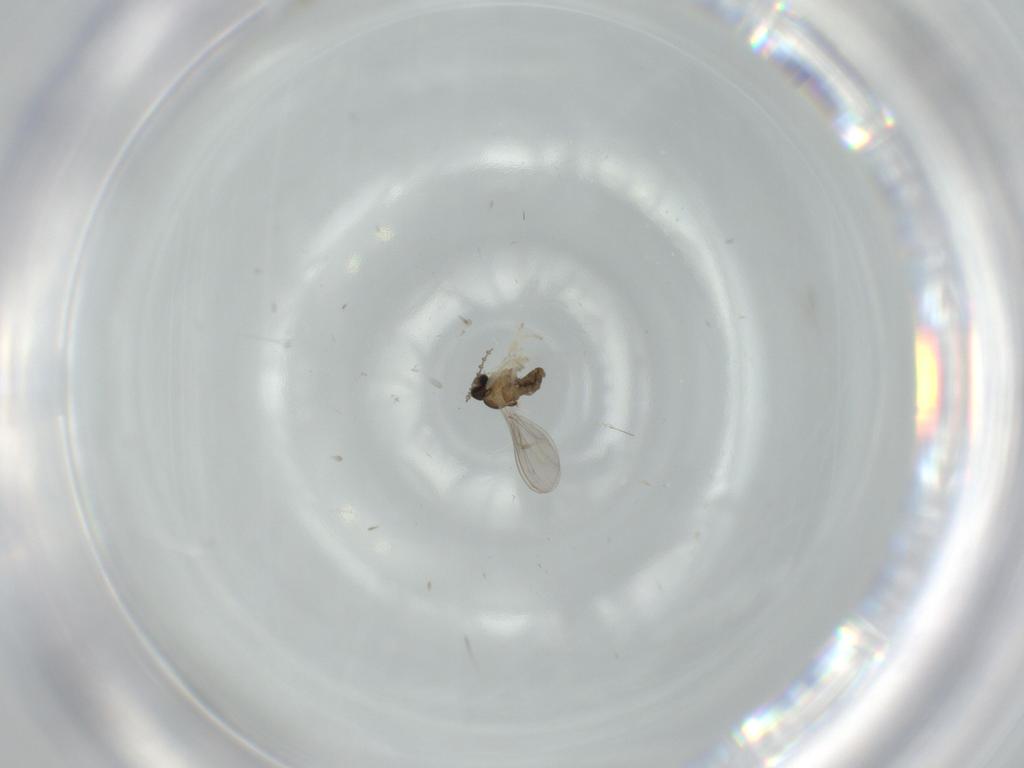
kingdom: Animalia
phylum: Arthropoda
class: Insecta
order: Diptera
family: Cecidomyiidae
